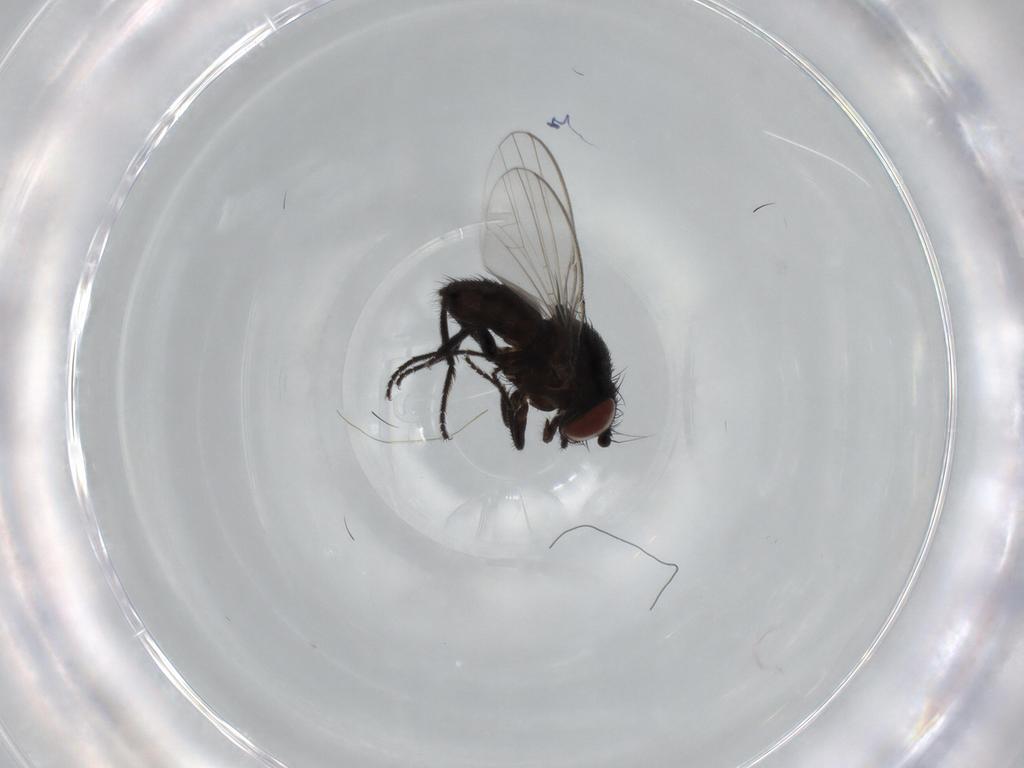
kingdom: Animalia
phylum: Arthropoda
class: Insecta
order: Diptera
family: Milichiidae
